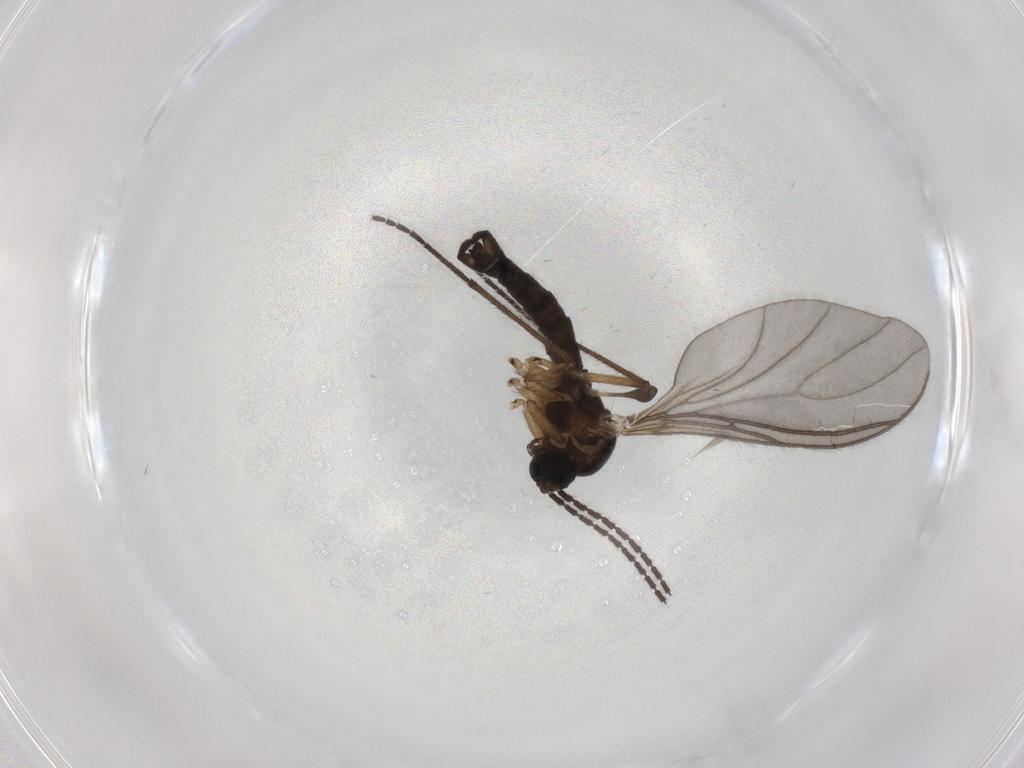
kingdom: Animalia
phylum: Arthropoda
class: Insecta
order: Diptera
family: Sciaridae
